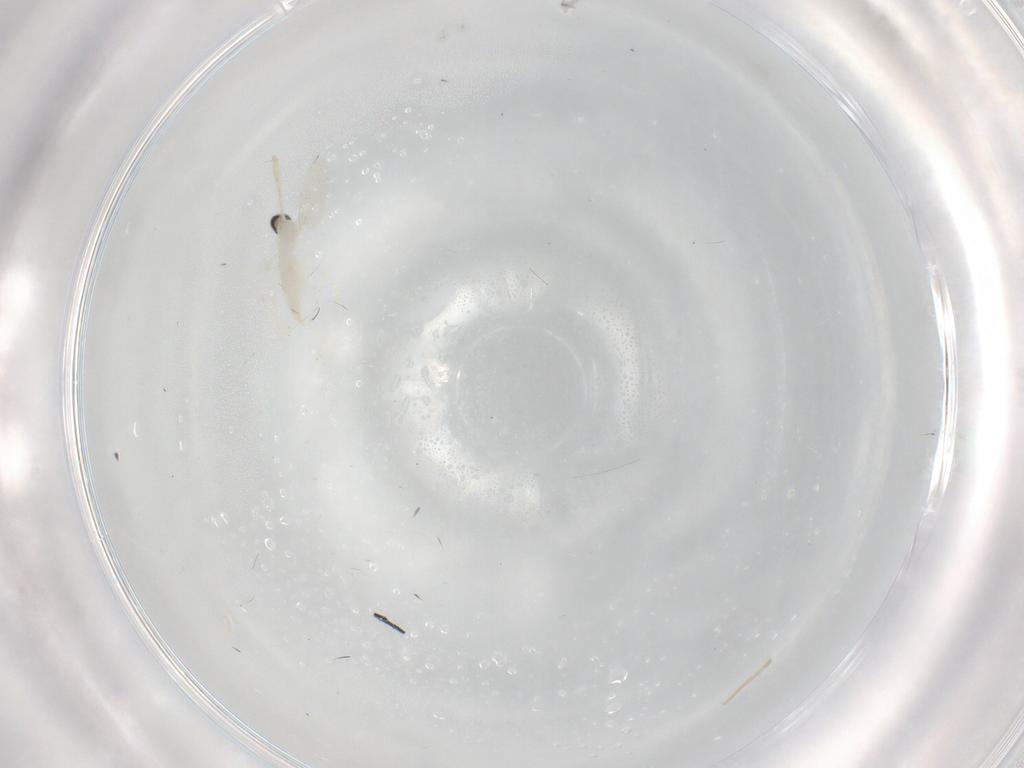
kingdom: Animalia
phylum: Arthropoda
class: Insecta
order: Diptera
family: Cecidomyiidae
